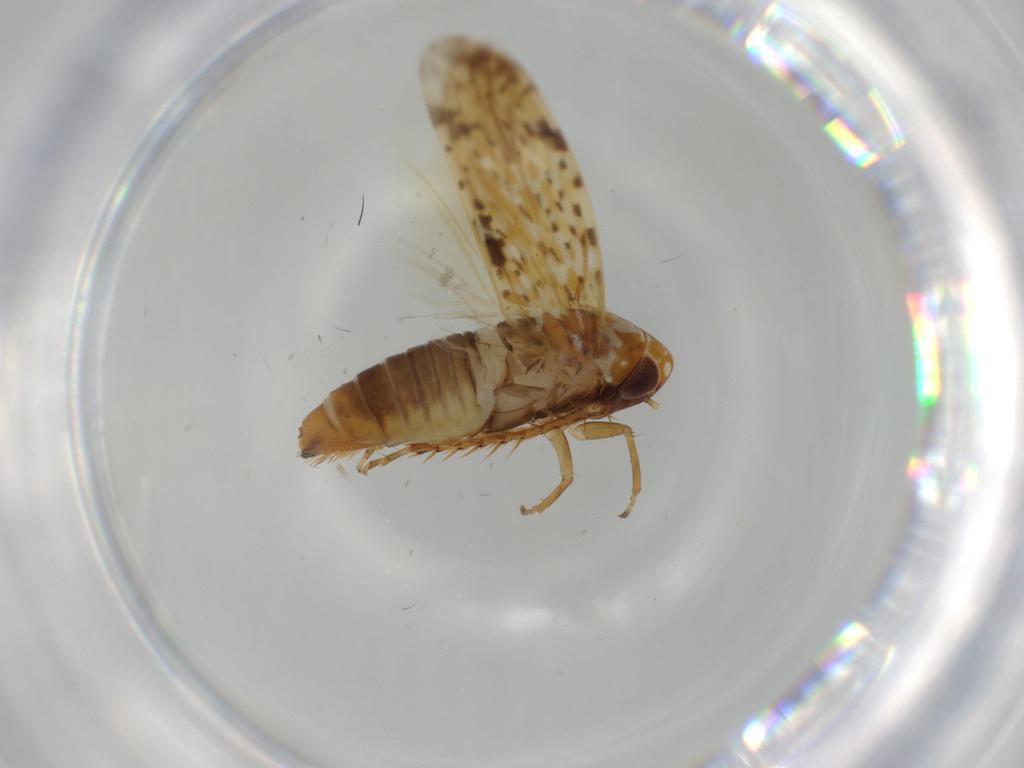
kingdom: Animalia
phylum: Arthropoda
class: Insecta
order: Hemiptera
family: Cicadellidae
